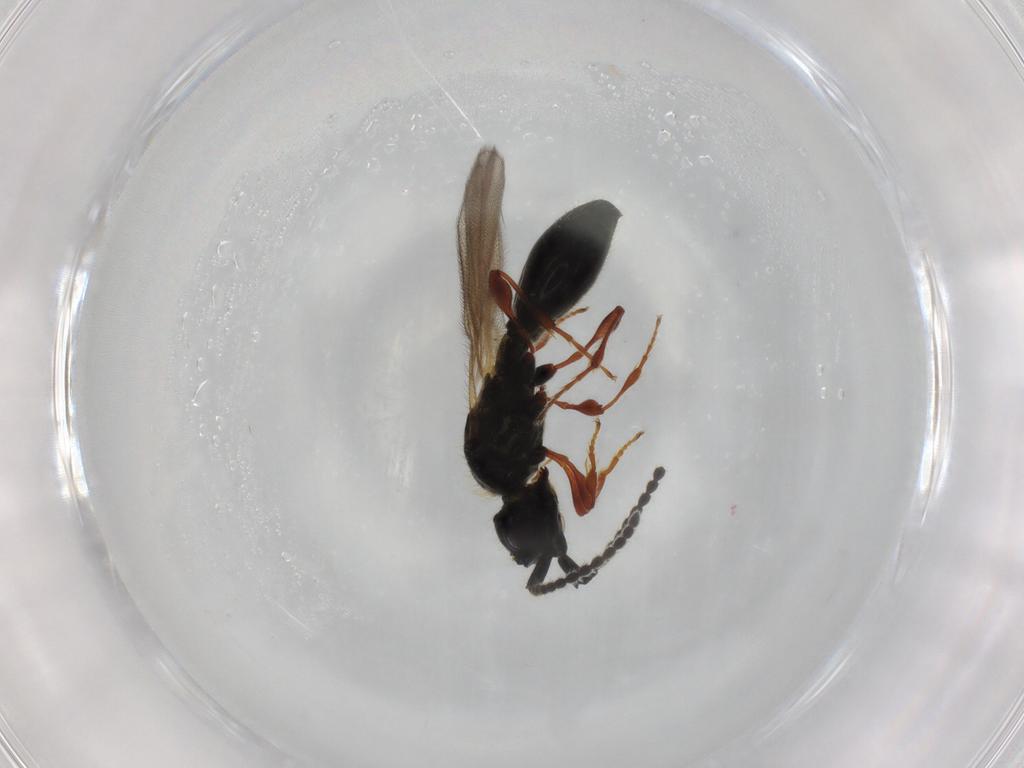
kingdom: Animalia
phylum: Arthropoda
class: Insecta
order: Hymenoptera
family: Diapriidae
